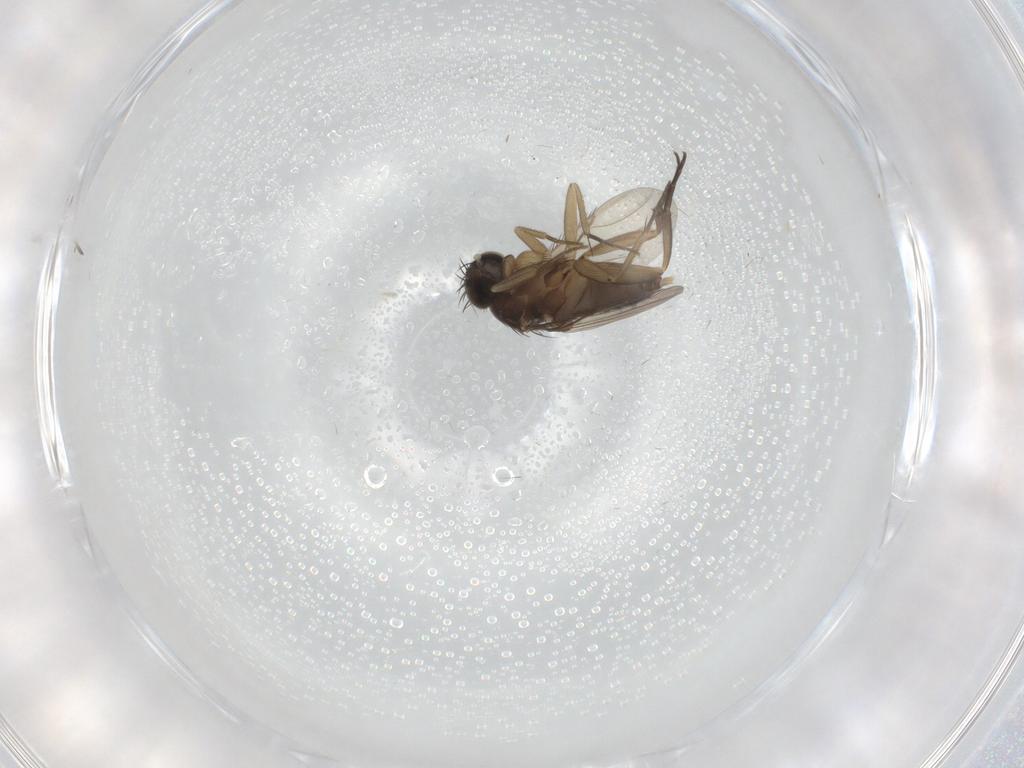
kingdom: Animalia
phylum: Arthropoda
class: Insecta
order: Diptera
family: Phoridae
